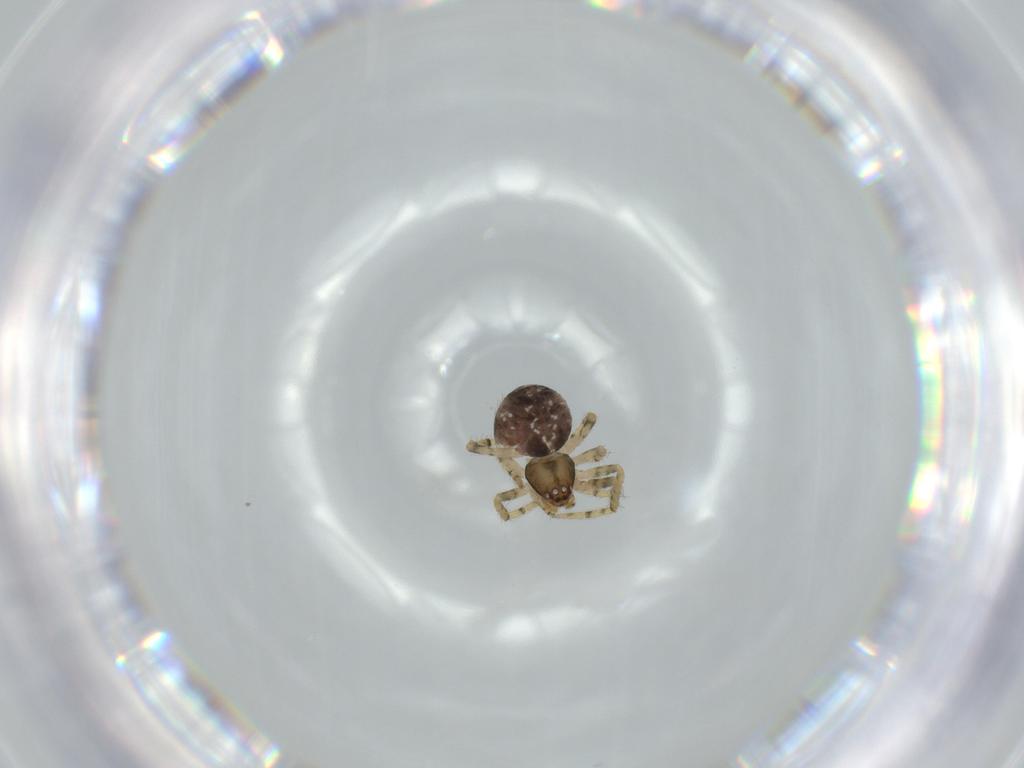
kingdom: Animalia
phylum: Arthropoda
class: Arachnida
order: Araneae
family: Theridiidae
